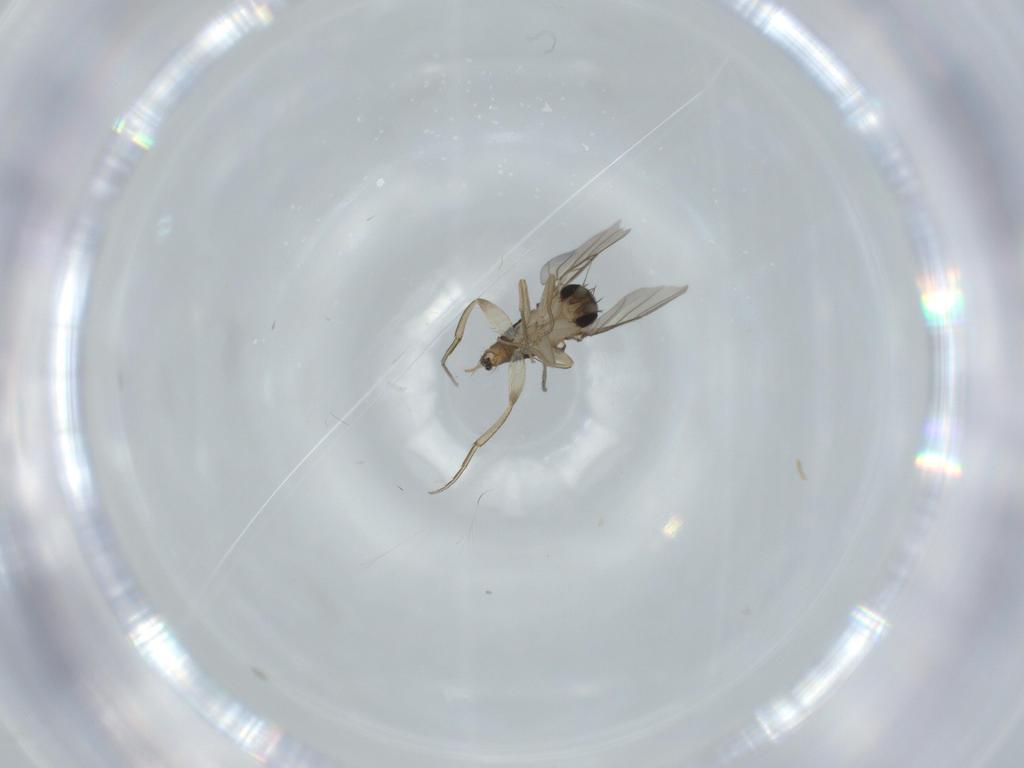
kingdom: Animalia
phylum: Arthropoda
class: Insecta
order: Diptera
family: Phoridae
